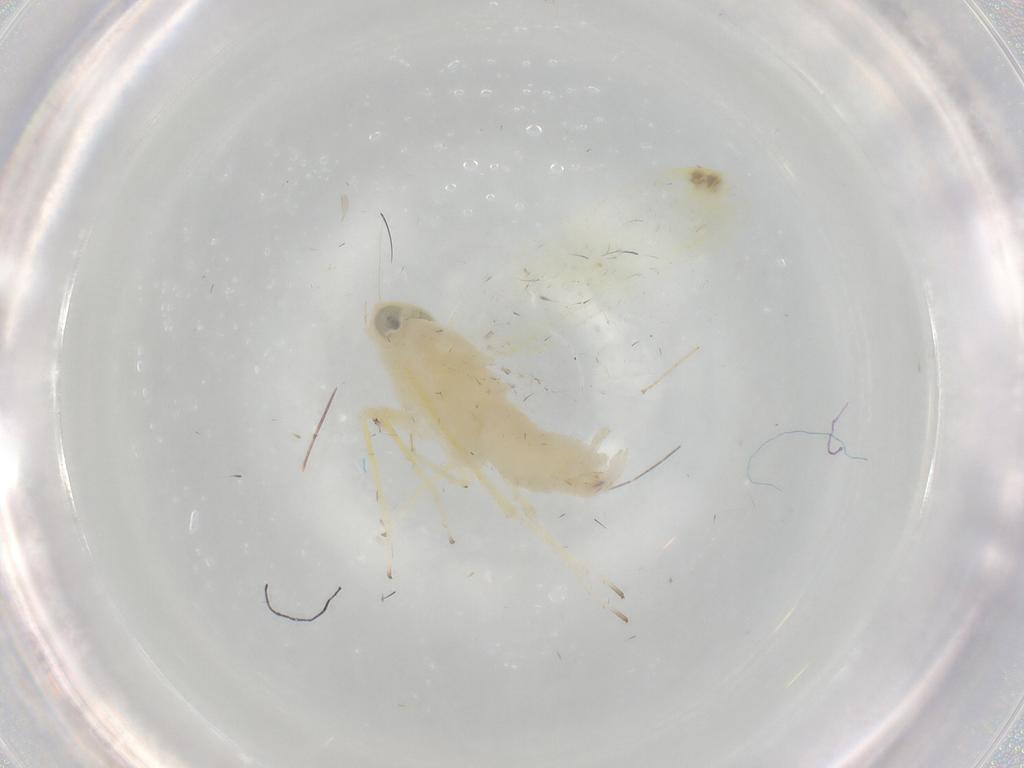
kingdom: Animalia
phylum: Arthropoda
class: Insecta
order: Hemiptera
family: Cicadellidae
